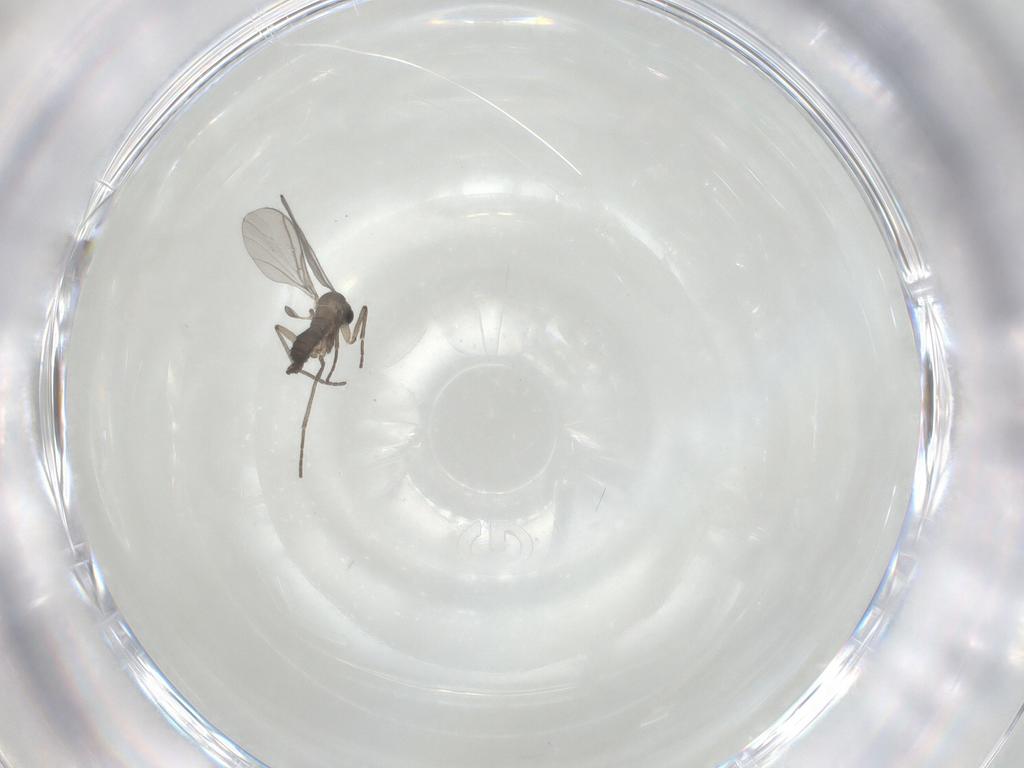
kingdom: Animalia
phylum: Arthropoda
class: Insecta
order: Diptera
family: Sciaridae
